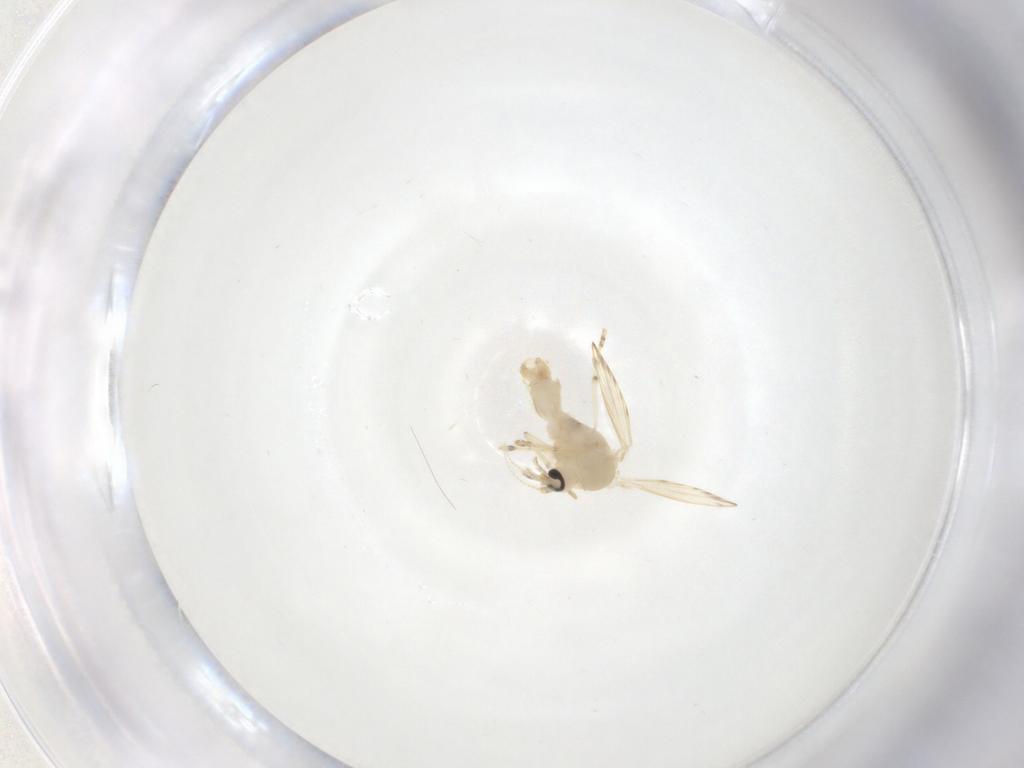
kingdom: Animalia
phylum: Arthropoda
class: Insecta
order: Diptera
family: Psychodidae
